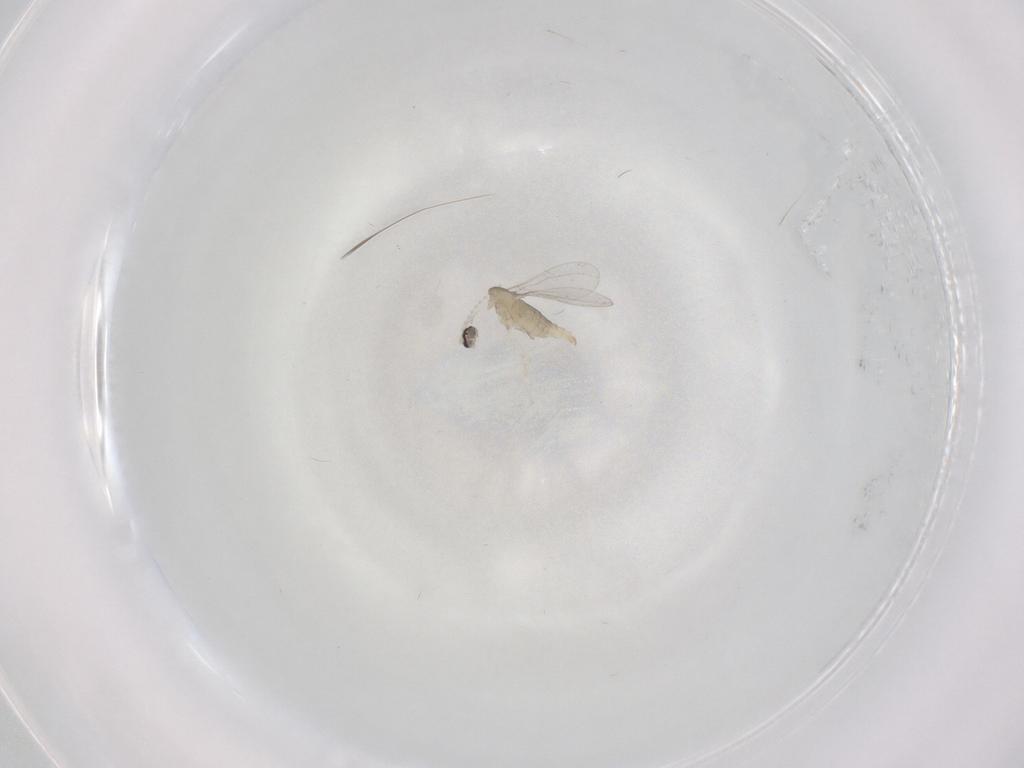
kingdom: Animalia
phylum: Arthropoda
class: Insecta
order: Diptera
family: Cecidomyiidae
